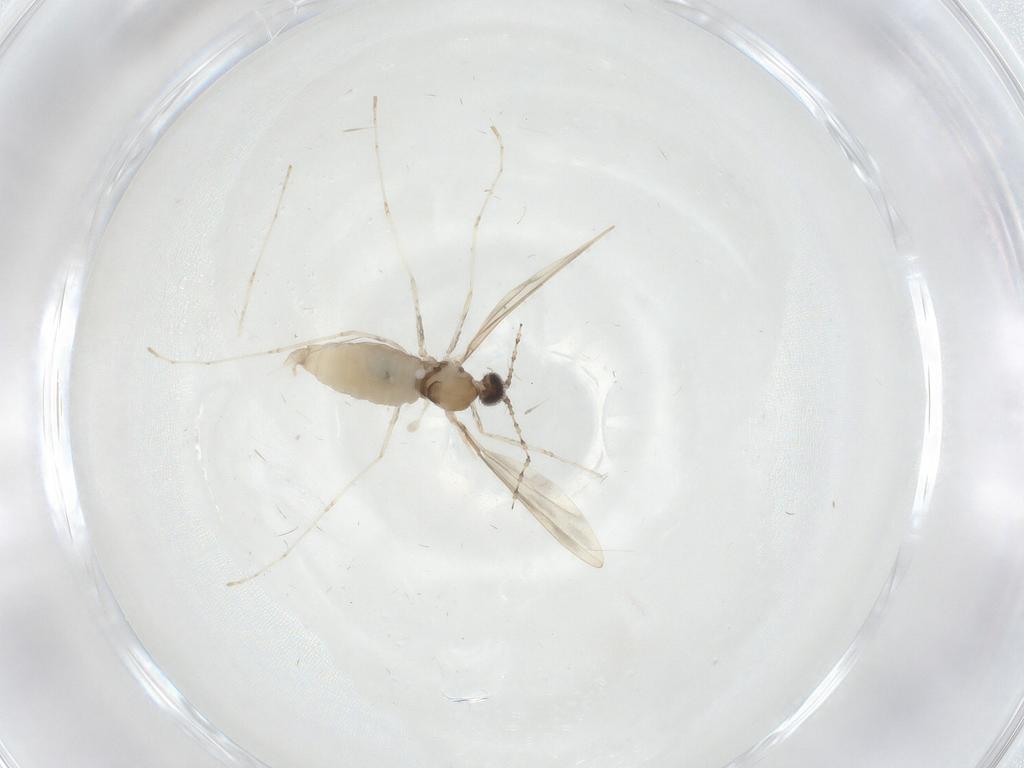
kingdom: Animalia
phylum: Arthropoda
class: Insecta
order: Diptera
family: Cecidomyiidae
